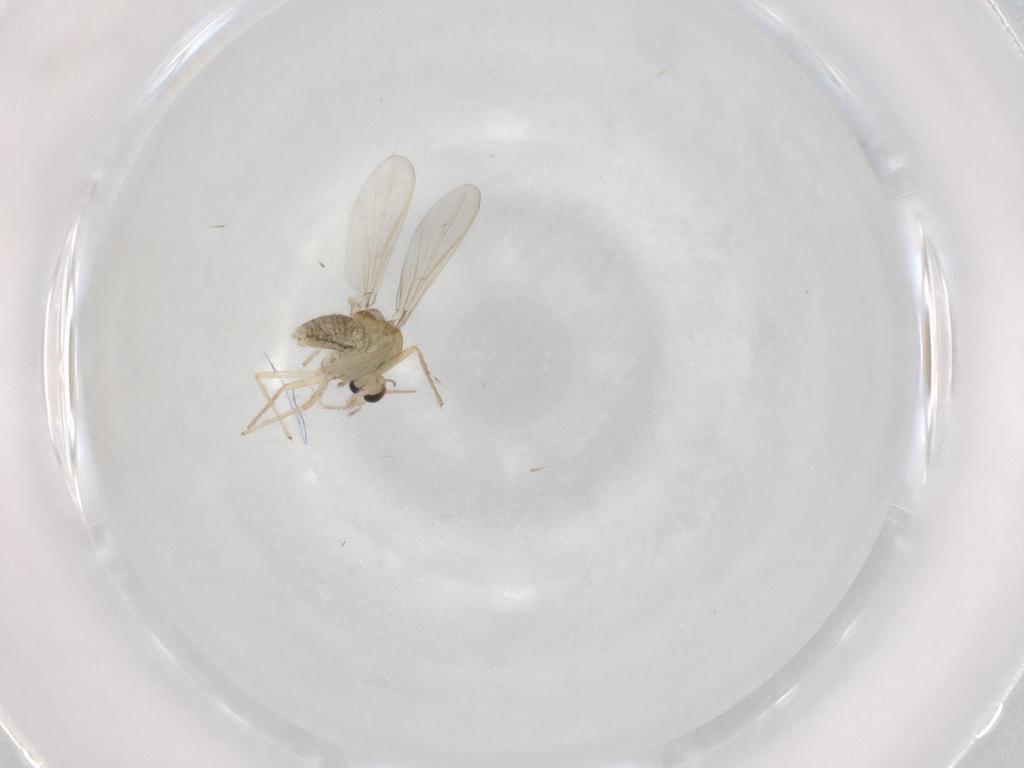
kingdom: Animalia
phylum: Arthropoda
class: Insecta
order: Diptera
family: Chironomidae
